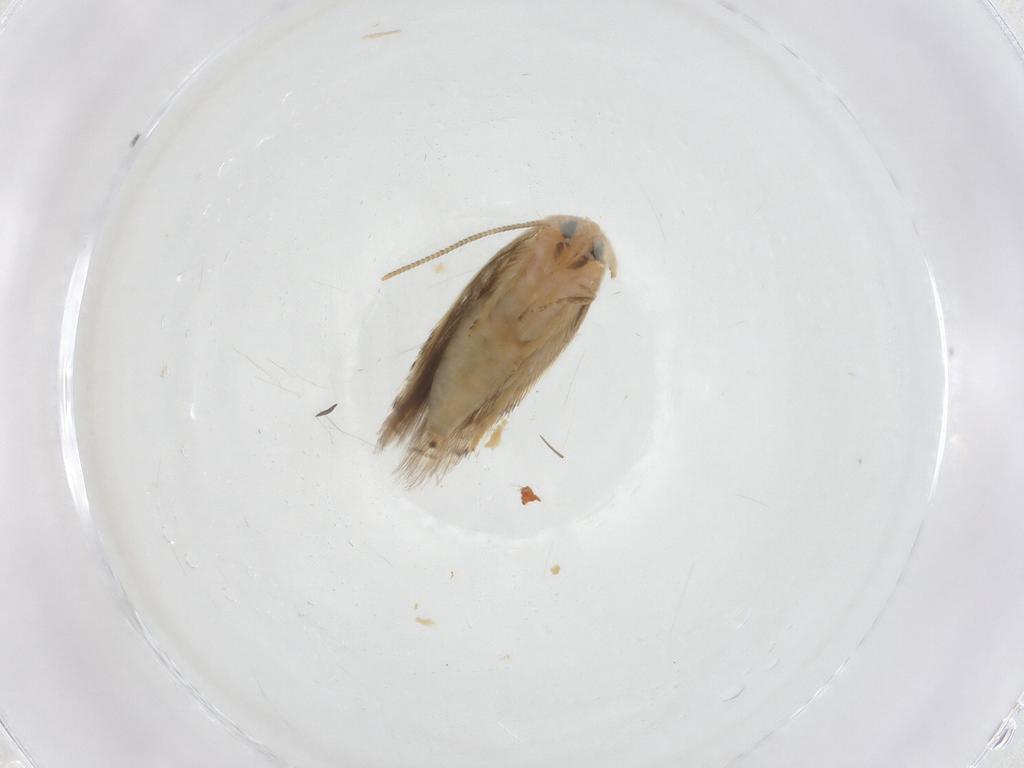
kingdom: Animalia
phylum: Arthropoda
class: Insecta
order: Lepidoptera
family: Opostegidae
